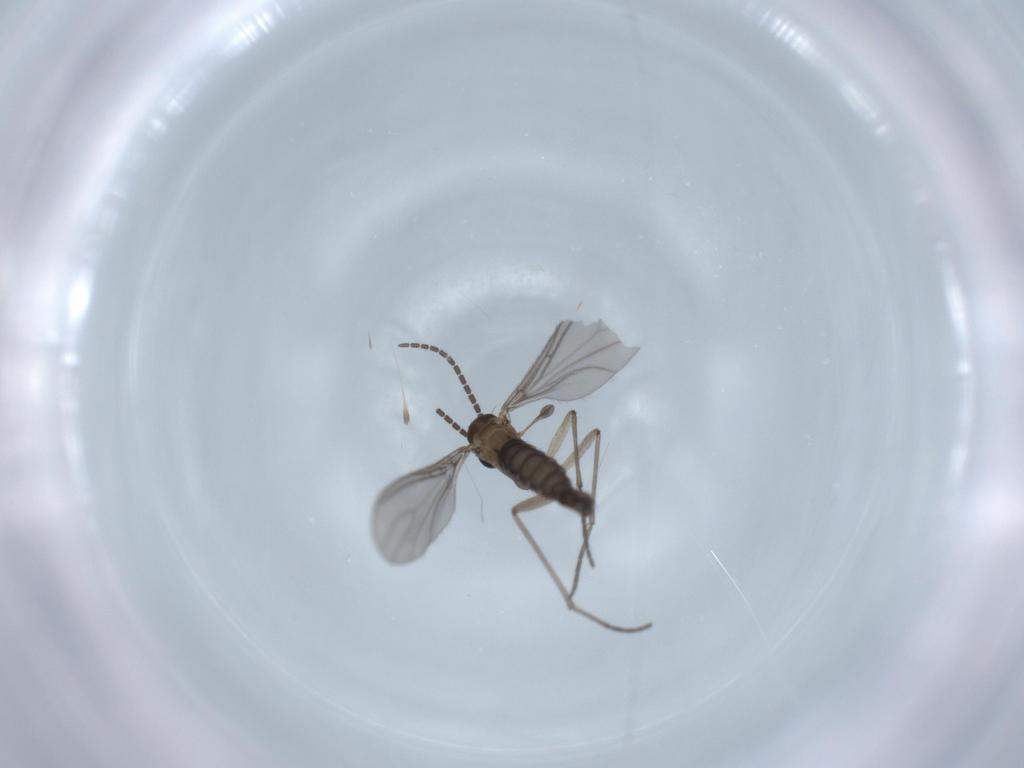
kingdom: Animalia
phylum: Arthropoda
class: Insecta
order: Diptera
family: Sciaridae
